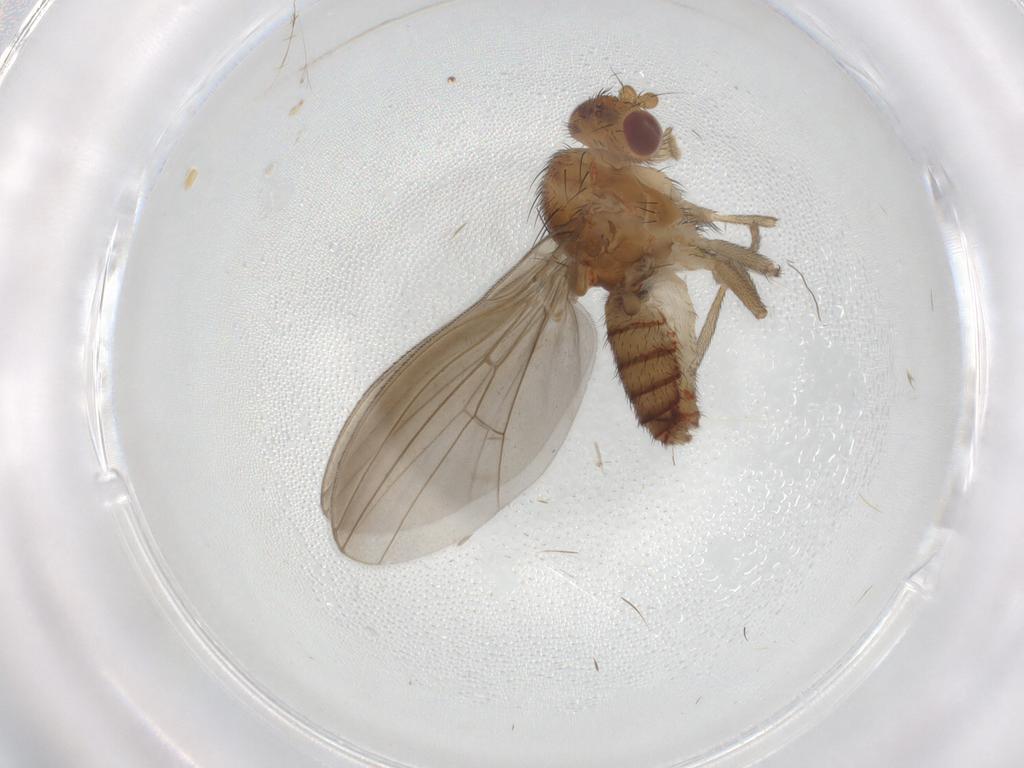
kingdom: Animalia
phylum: Arthropoda
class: Insecta
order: Diptera
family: Natalimyzidae
